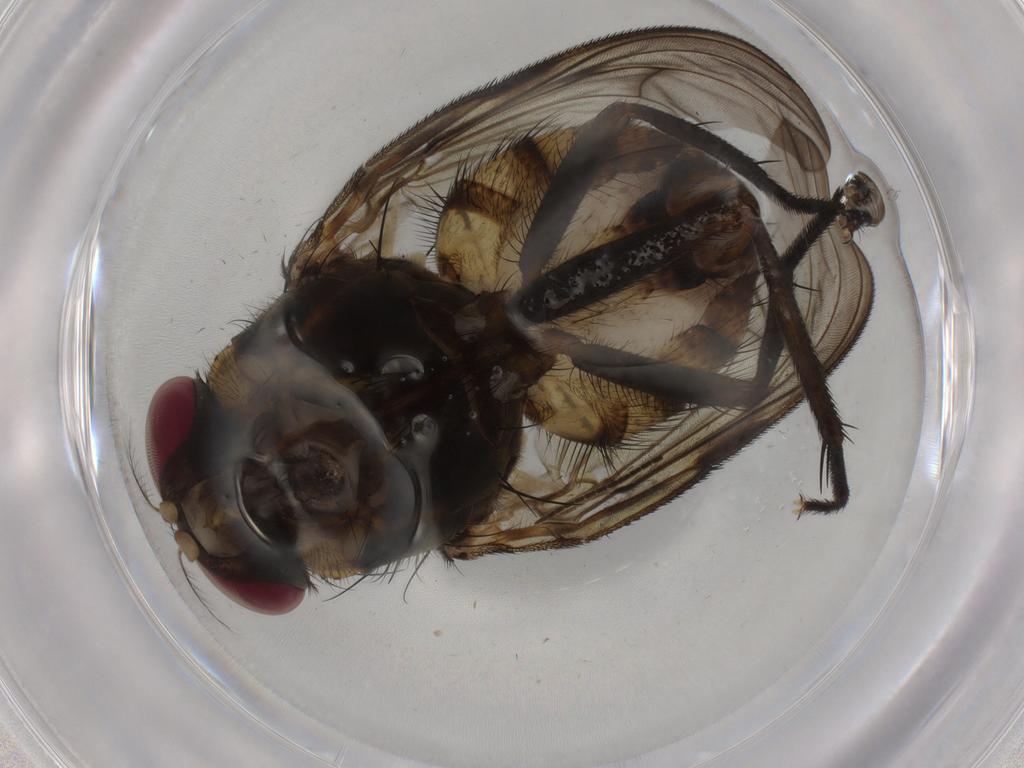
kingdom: Animalia
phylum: Arthropoda
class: Insecta
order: Diptera
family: Ceratopogonidae
